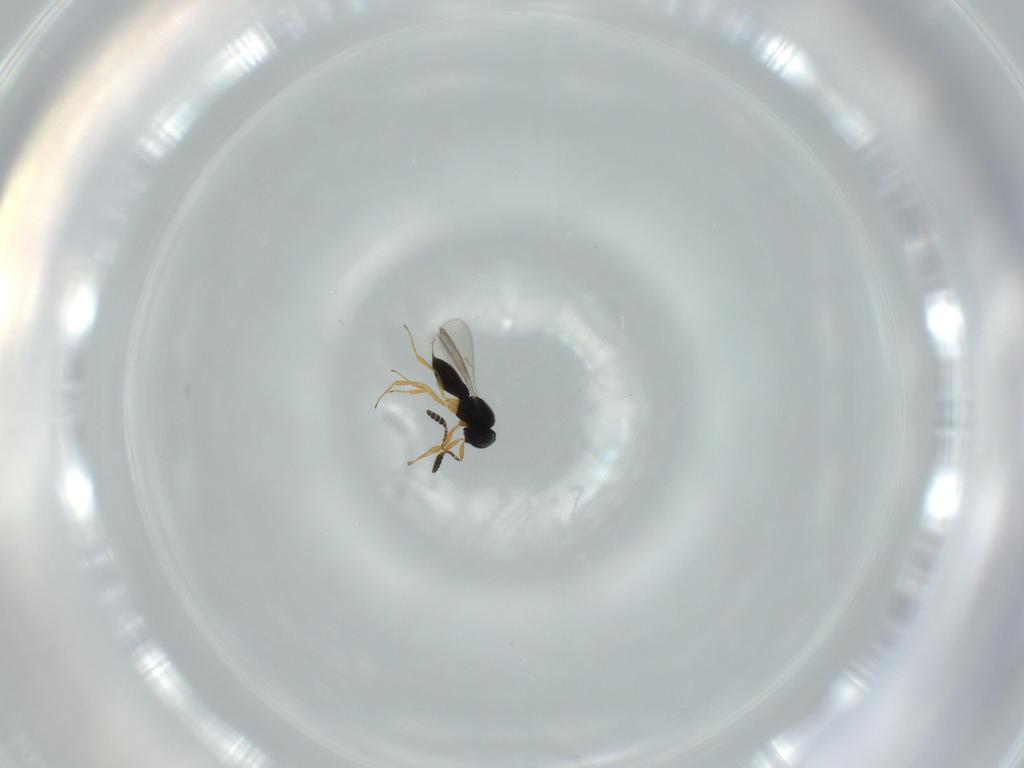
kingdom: Animalia
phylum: Arthropoda
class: Insecta
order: Hymenoptera
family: Scelionidae
